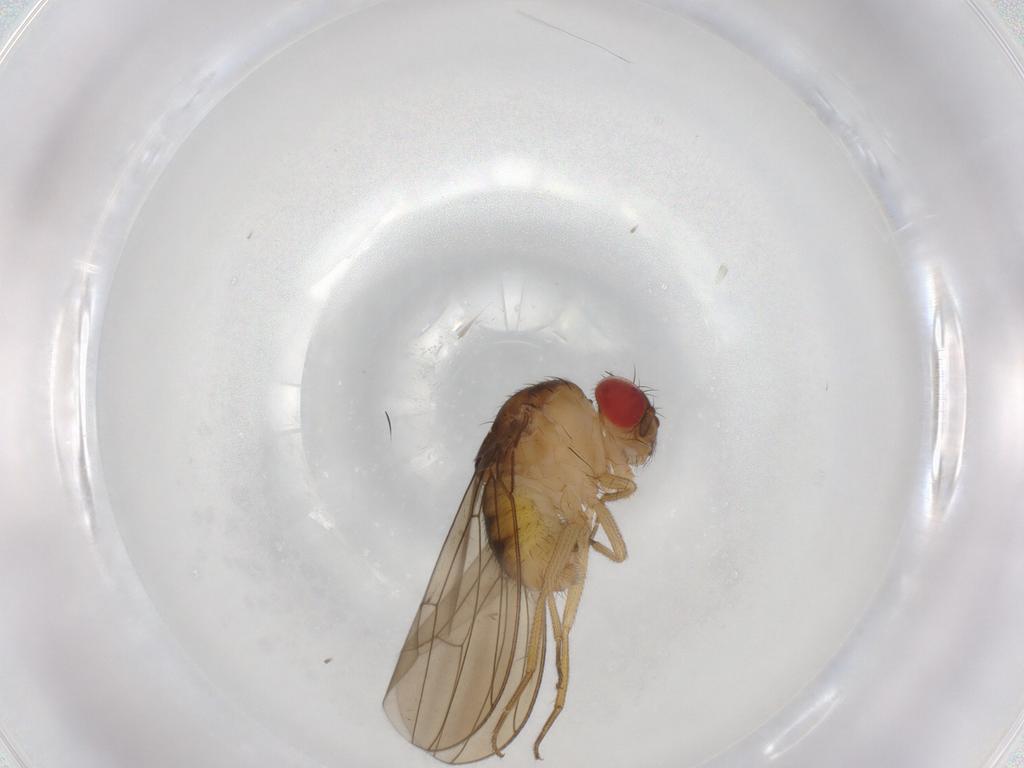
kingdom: Animalia
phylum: Arthropoda
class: Insecta
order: Diptera
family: Drosophilidae
